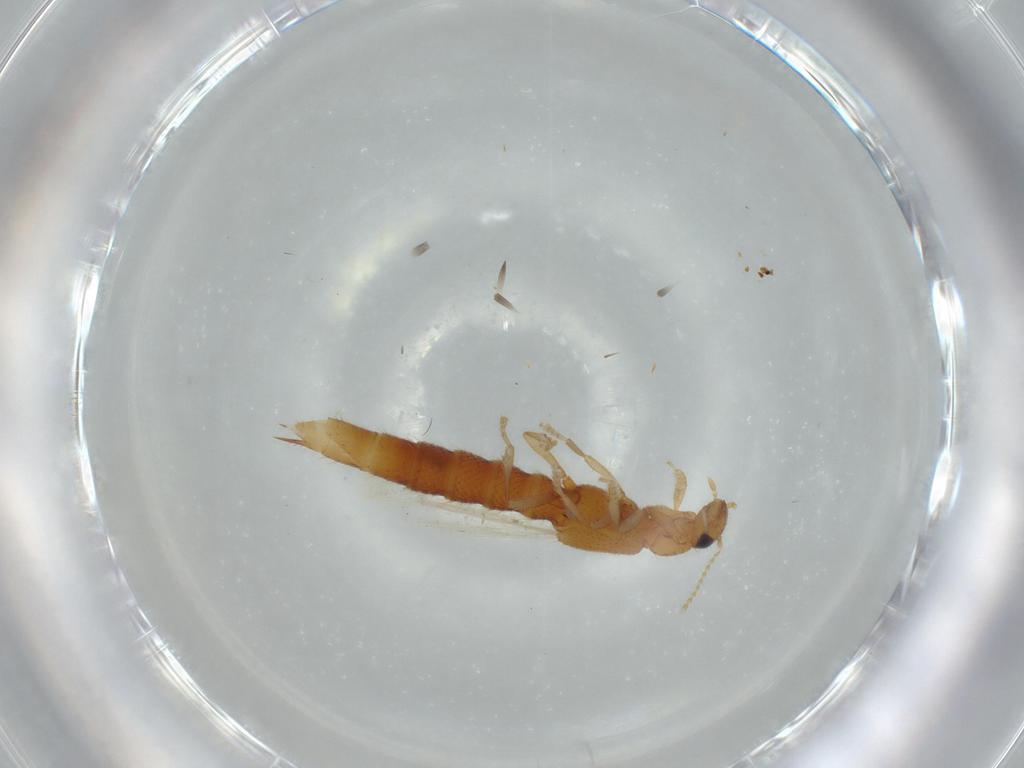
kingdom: Animalia
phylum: Arthropoda
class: Insecta
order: Coleoptera
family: Staphylinidae
